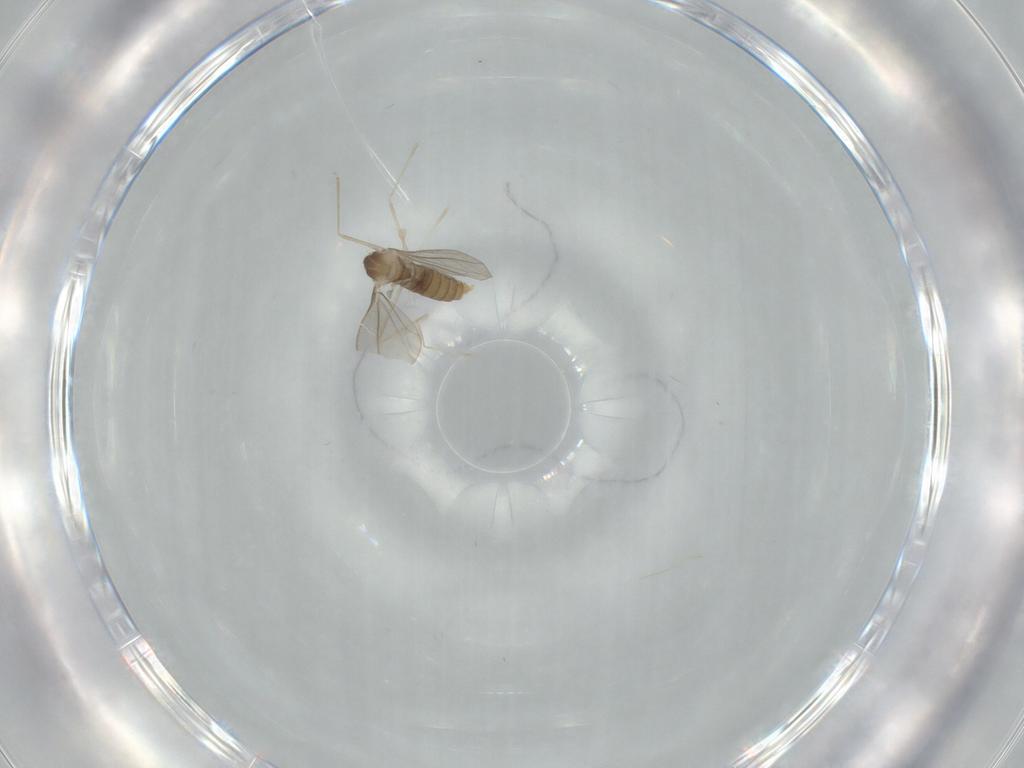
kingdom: Animalia
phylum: Arthropoda
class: Insecta
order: Diptera
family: Cecidomyiidae
